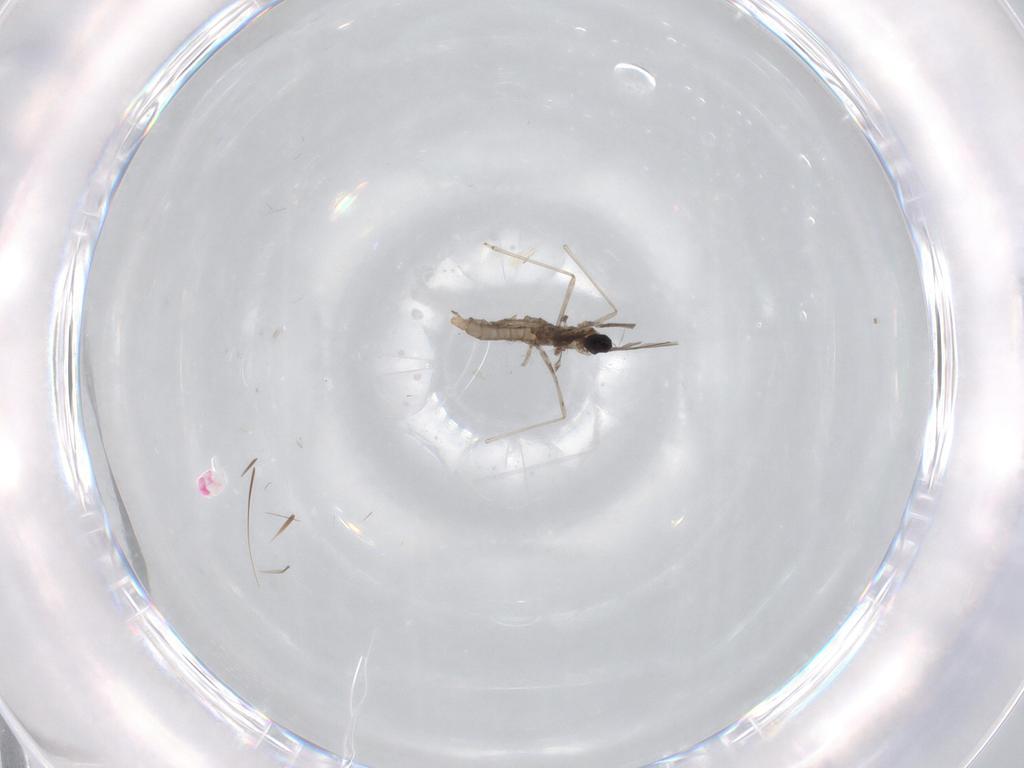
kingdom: Animalia
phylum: Arthropoda
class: Insecta
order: Diptera
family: Cecidomyiidae
